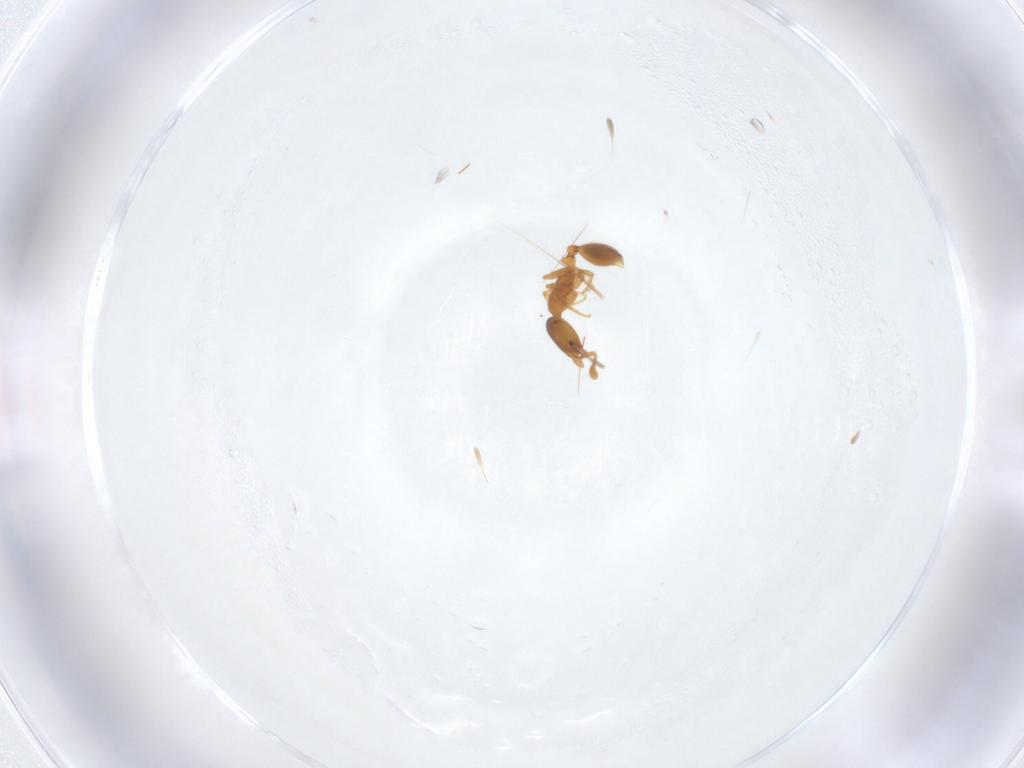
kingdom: Animalia
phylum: Arthropoda
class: Insecta
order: Hymenoptera
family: Formicidae
